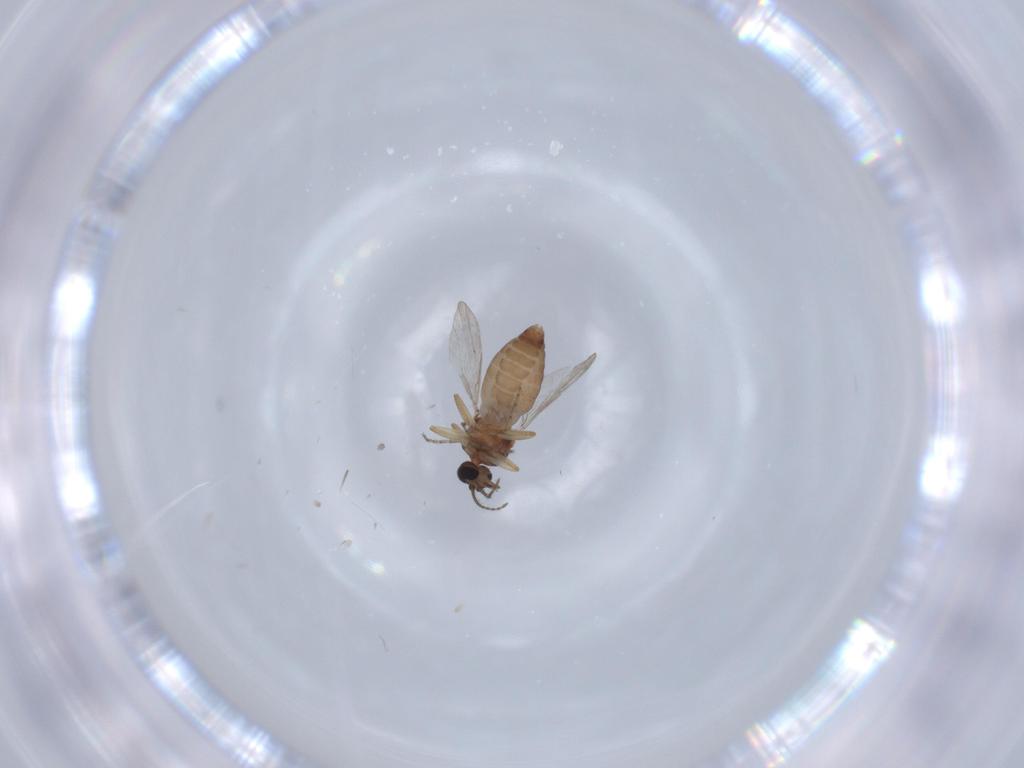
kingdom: Animalia
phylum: Arthropoda
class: Insecta
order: Diptera
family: Ceratopogonidae
